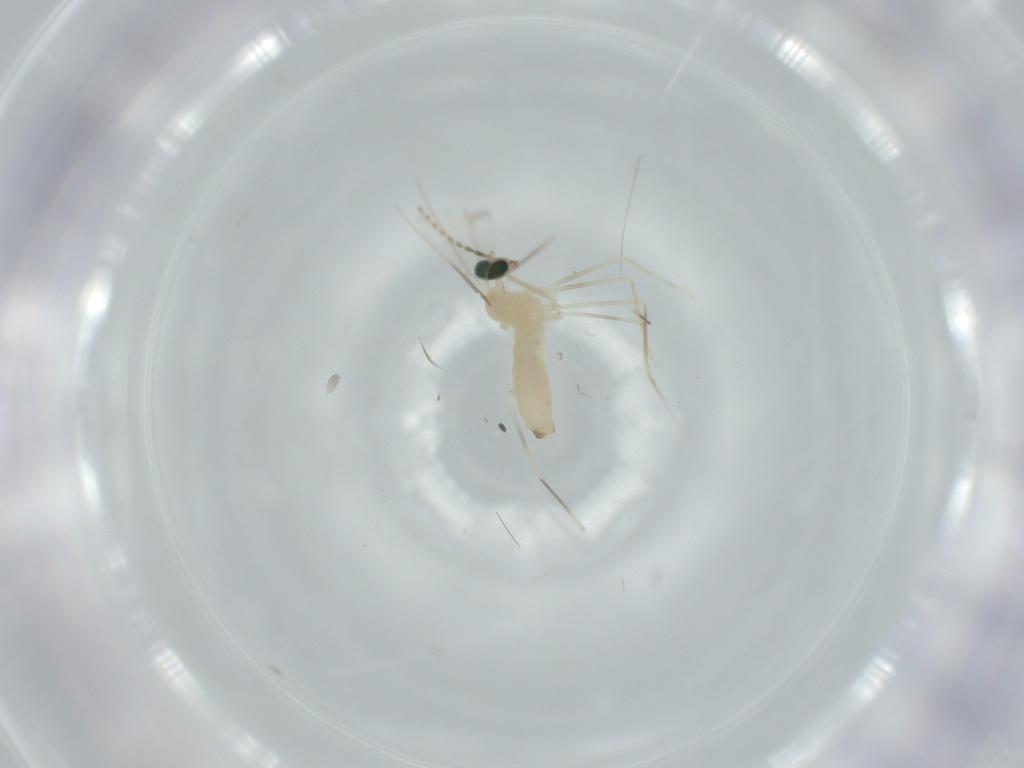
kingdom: Animalia
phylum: Arthropoda
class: Insecta
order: Diptera
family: Cecidomyiidae
